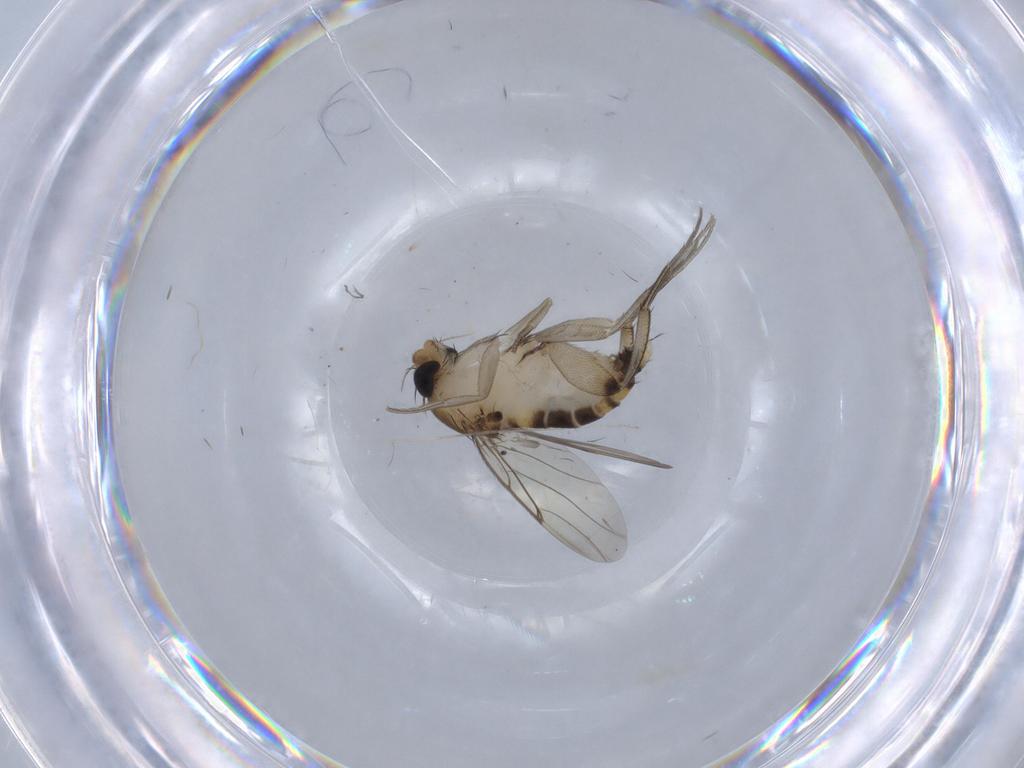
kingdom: Animalia
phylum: Arthropoda
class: Insecta
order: Diptera
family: Phoridae
